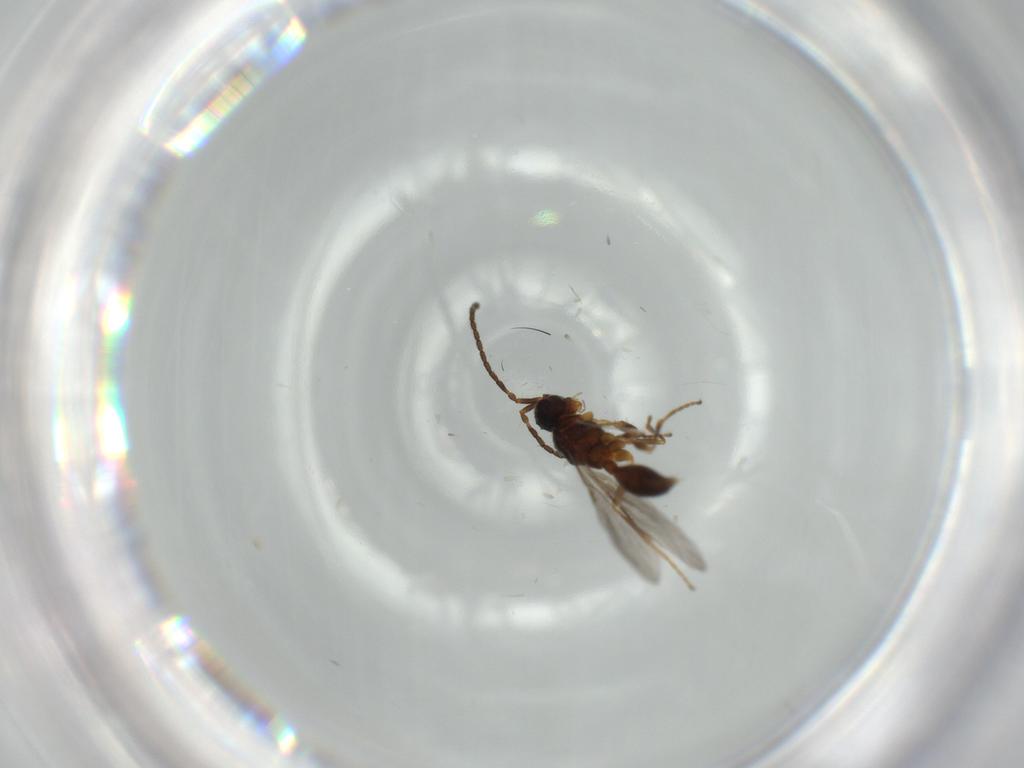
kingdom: Animalia
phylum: Arthropoda
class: Insecta
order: Hymenoptera
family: Diapriidae
